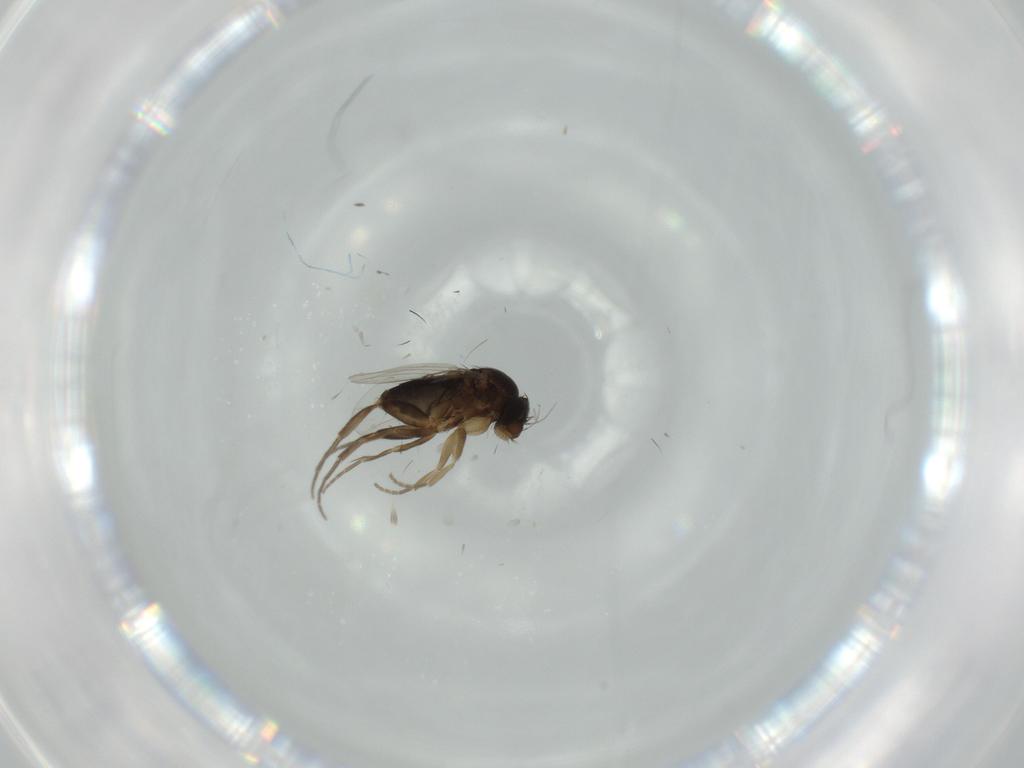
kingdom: Animalia
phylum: Arthropoda
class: Insecta
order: Diptera
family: Phoridae
